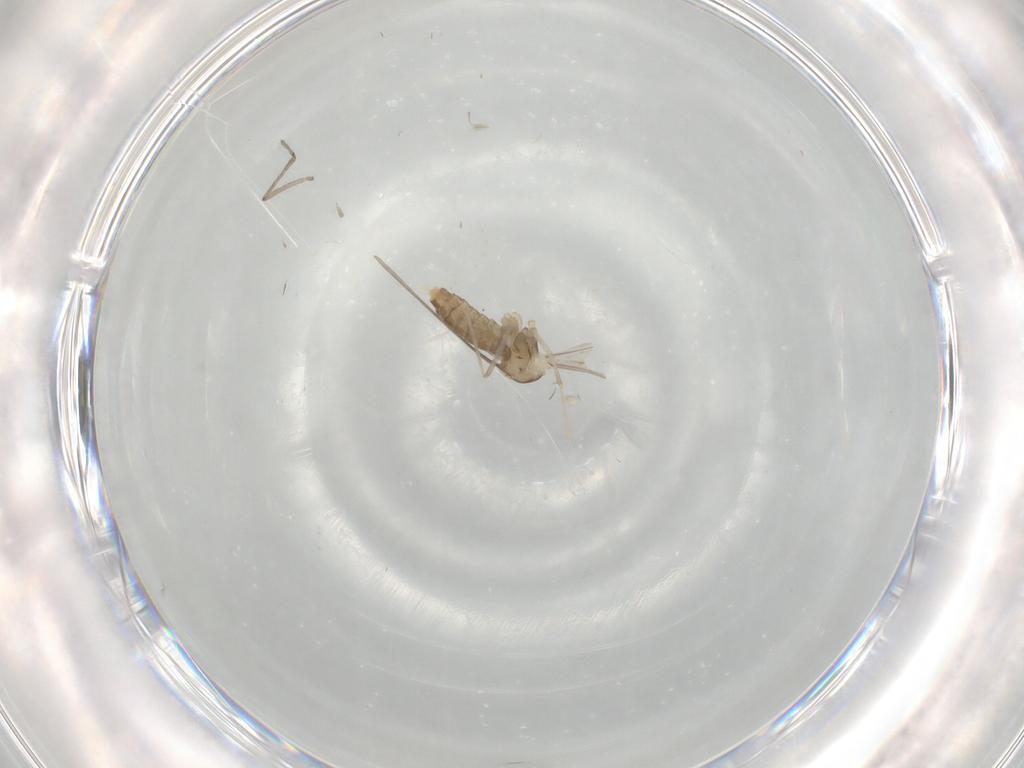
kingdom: Animalia
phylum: Arthropoda
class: Insecta
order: Diptera
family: Cecidomyiidae
